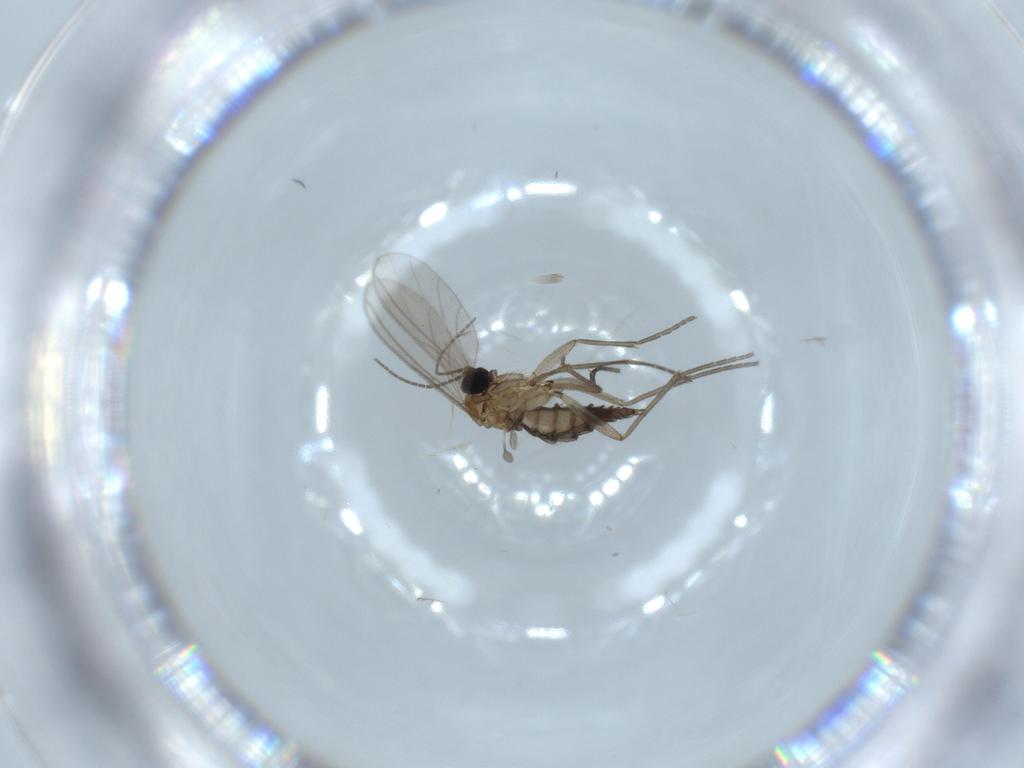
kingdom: Animalia
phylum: Arthropoda
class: Insecta
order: Diptera
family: Sciaridae
